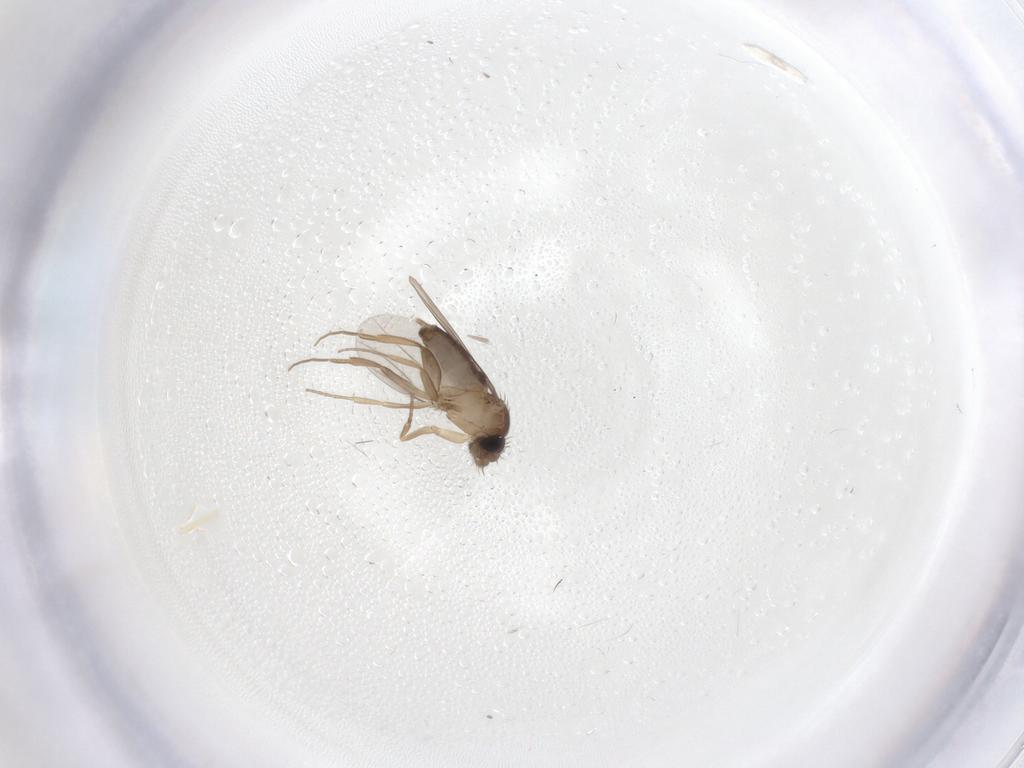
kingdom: Animalia
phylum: Arthropoda
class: Insecta
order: Diptera
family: Phoridae
